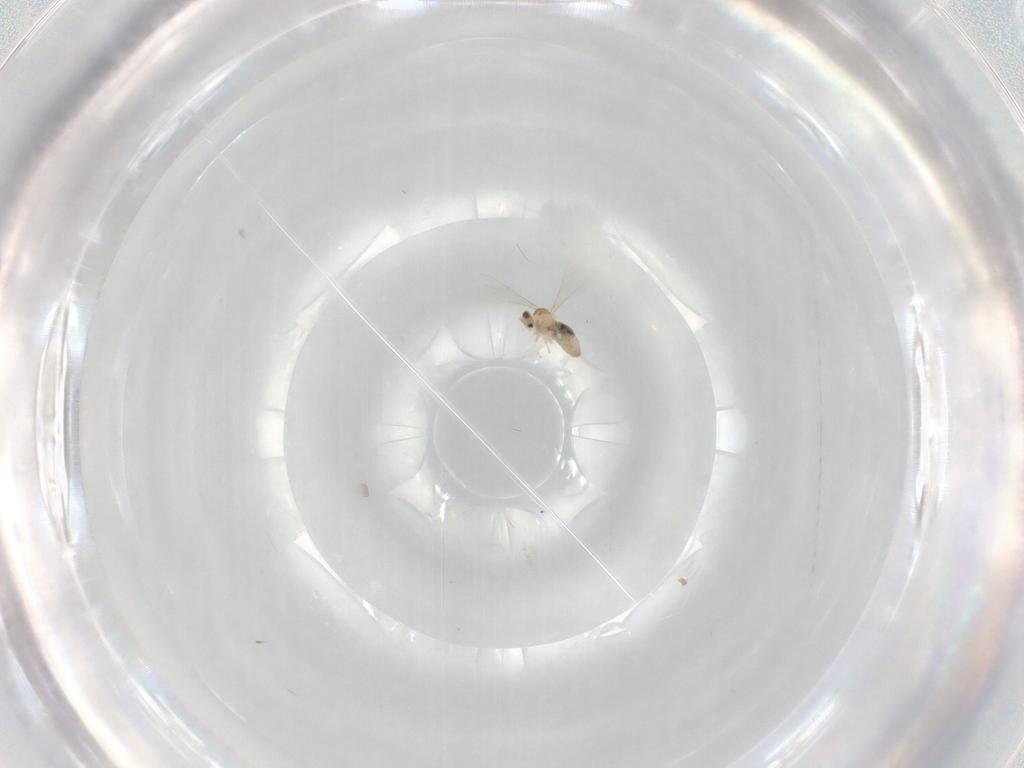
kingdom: Animalia
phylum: Arthropoda
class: Insecta
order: Diptera
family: Cecidomyiidae
